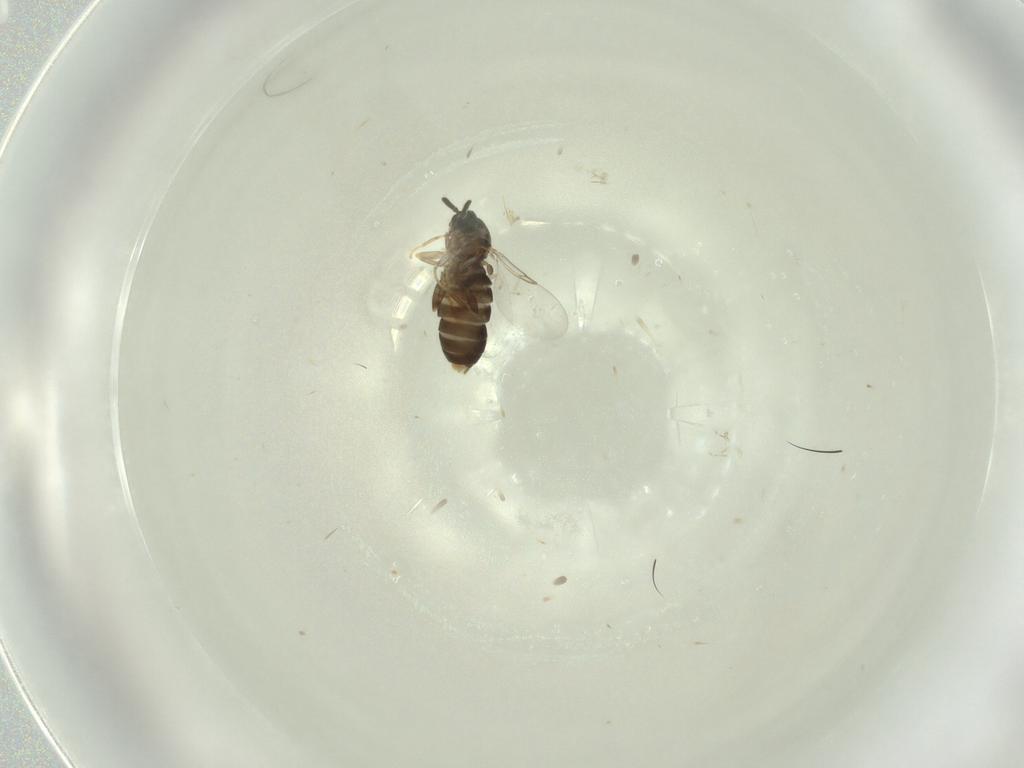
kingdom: Animalia
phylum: Arthropoda
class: Insecta
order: Diptera
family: Scatopsidae
